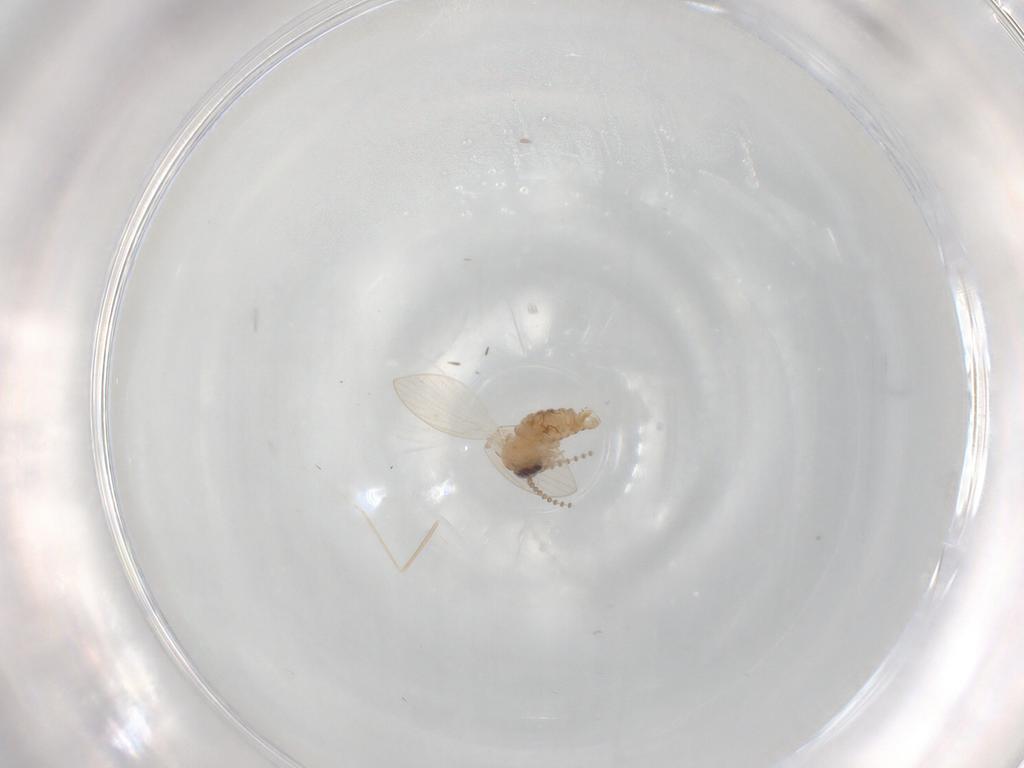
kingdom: Animalia
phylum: Arthropoda
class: Insecta
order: Diptera
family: Psychodidae
